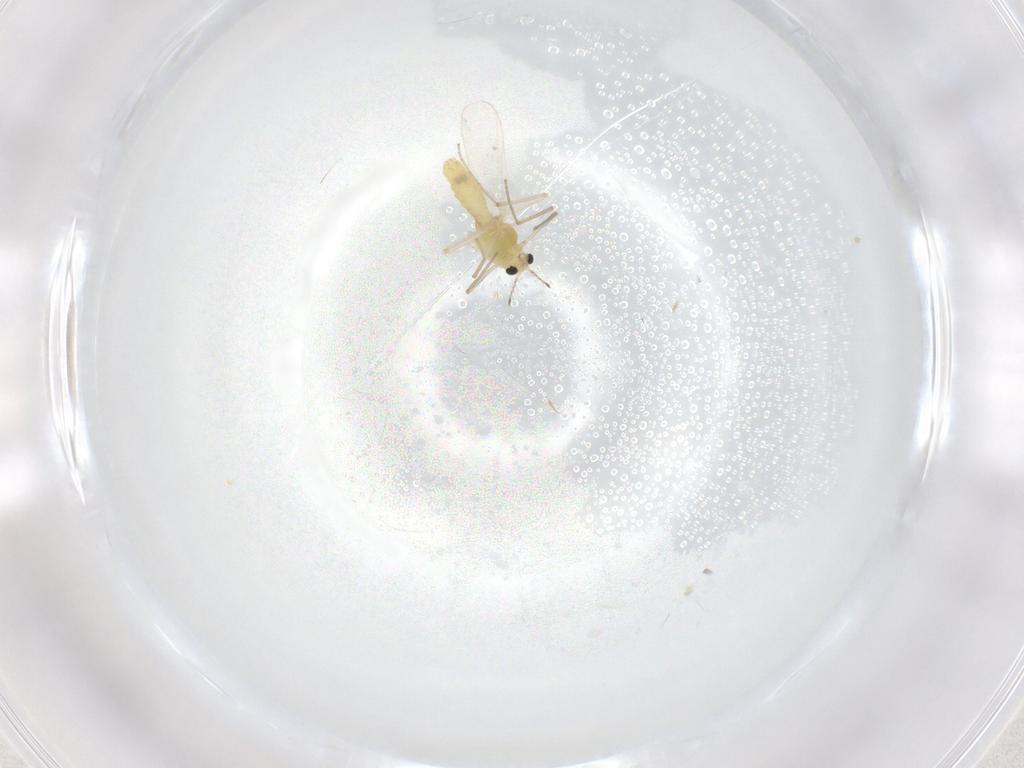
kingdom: Animalia
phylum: Arthropoda
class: Insecta
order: Diptera
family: Chironomidae
